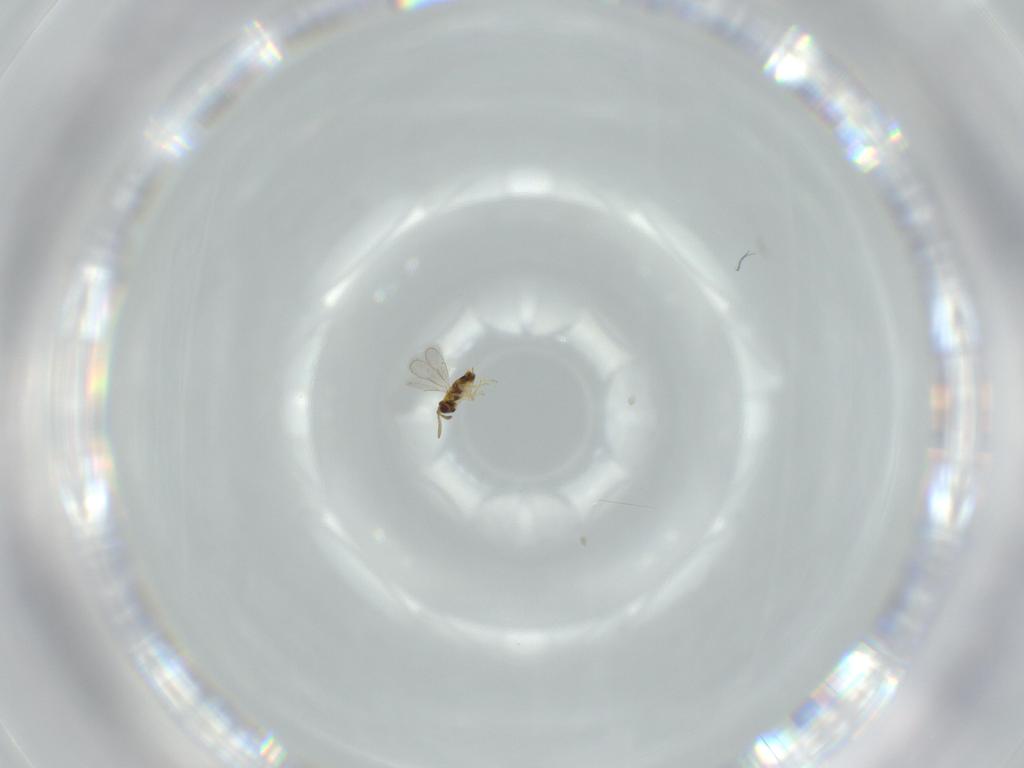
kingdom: Animalia
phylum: Arthropoda
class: Insecta
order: Hymenoptera
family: Aphelinidae
